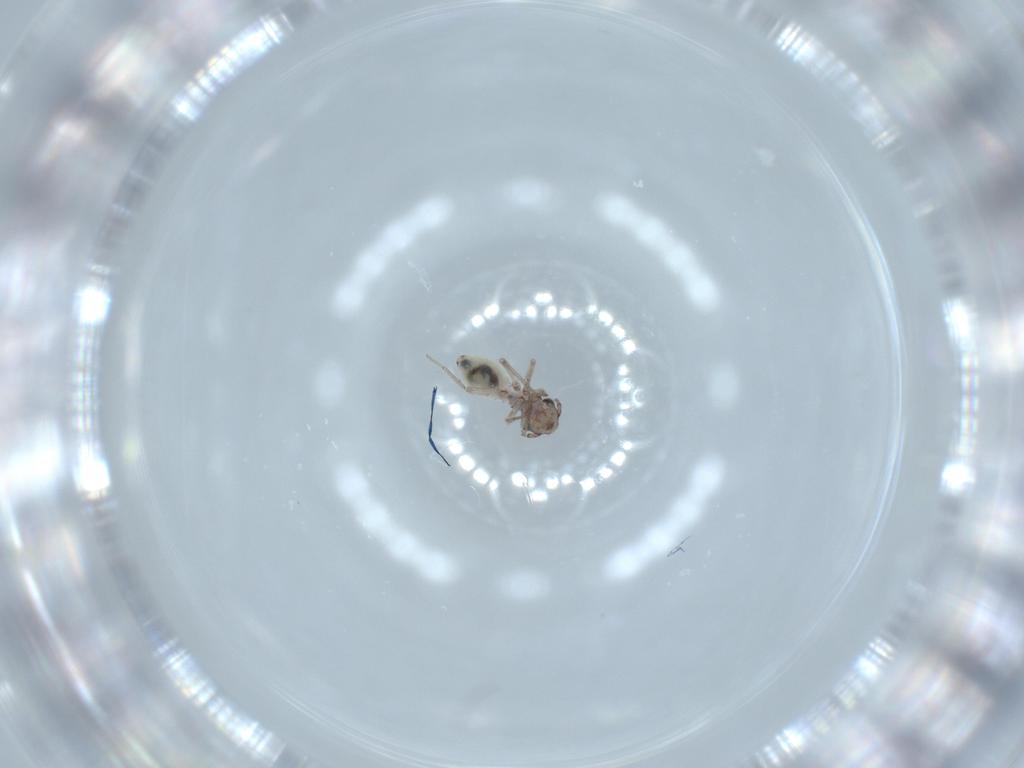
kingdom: Animalia
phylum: Arthropoda
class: Insecta
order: Psocodea
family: Lepidopsocidae
